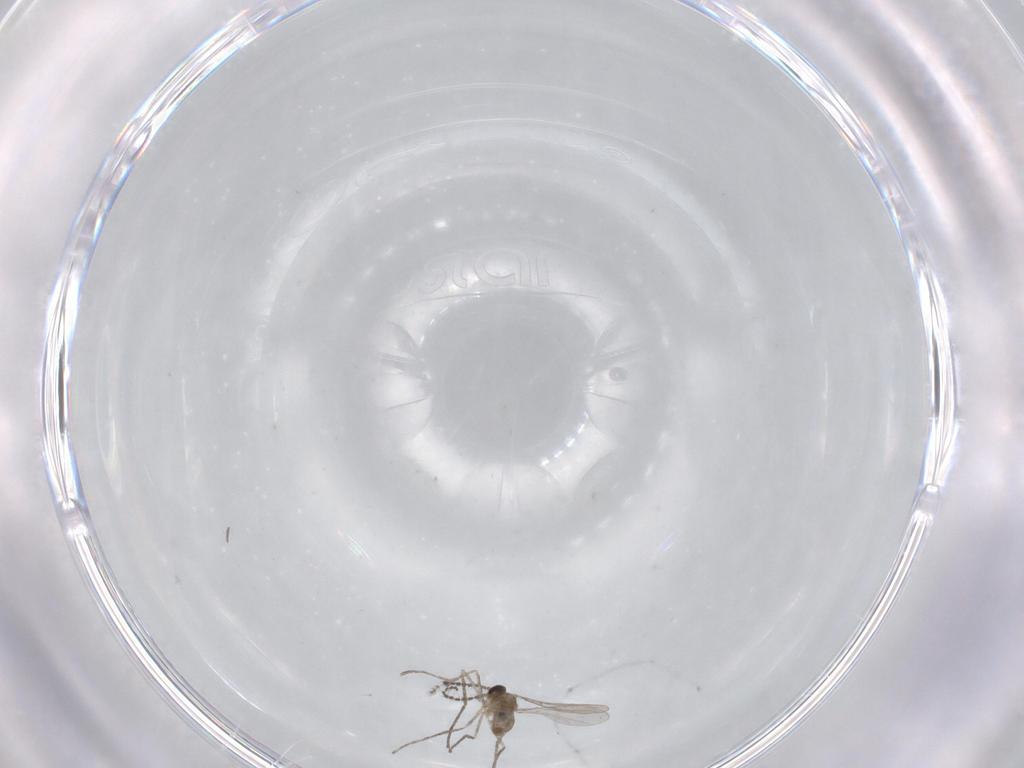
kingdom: Animalia
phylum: Arthropoda
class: Insecta
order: Diptera
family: Cecidomyiidae
